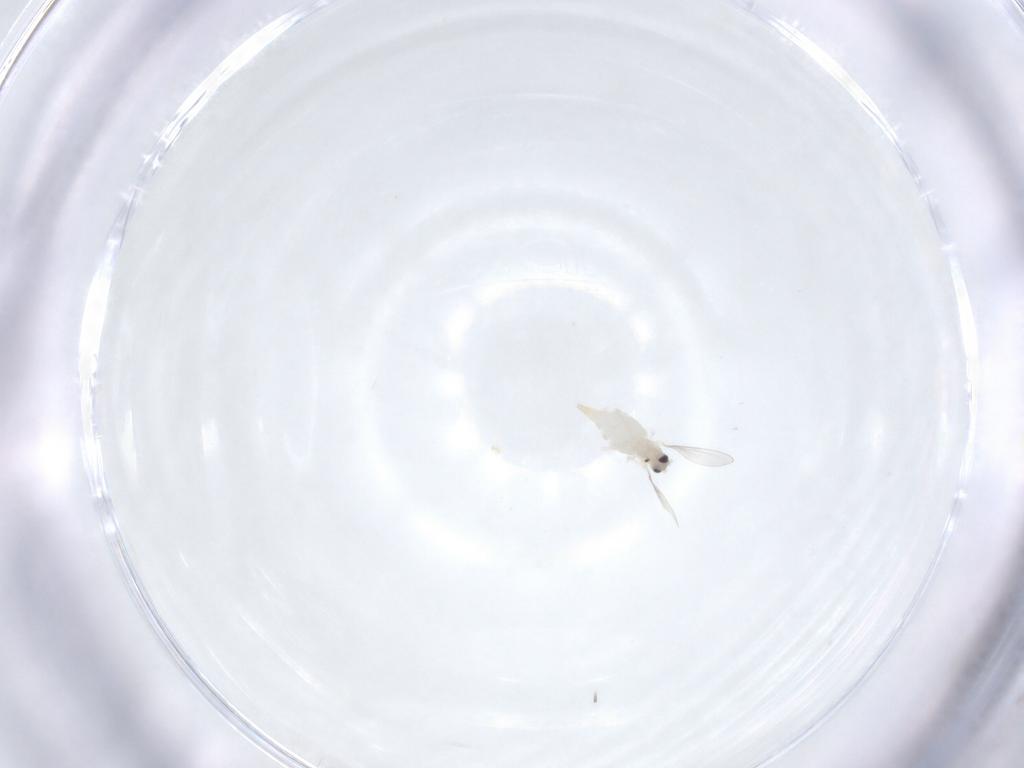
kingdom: Animalia
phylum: Arthropoda
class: Insecta
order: Diptera
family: Cecidomyiidae
